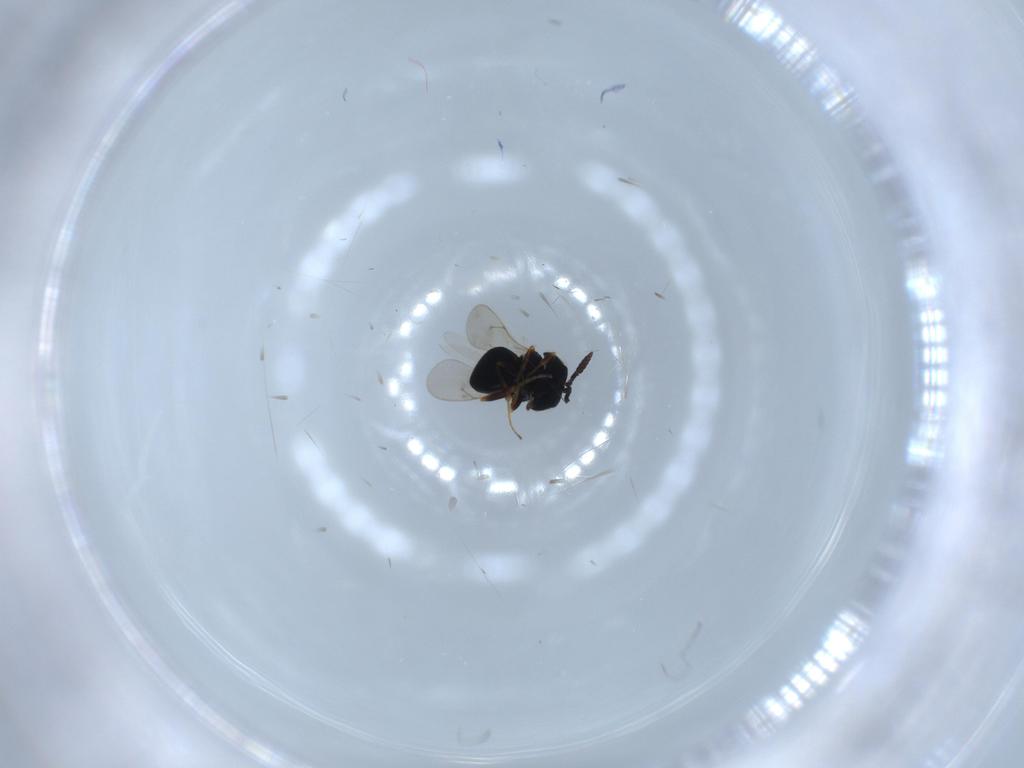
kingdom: Animalia
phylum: Arthropoda
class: Insecta
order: Hymenoptera
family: Scelionidae
